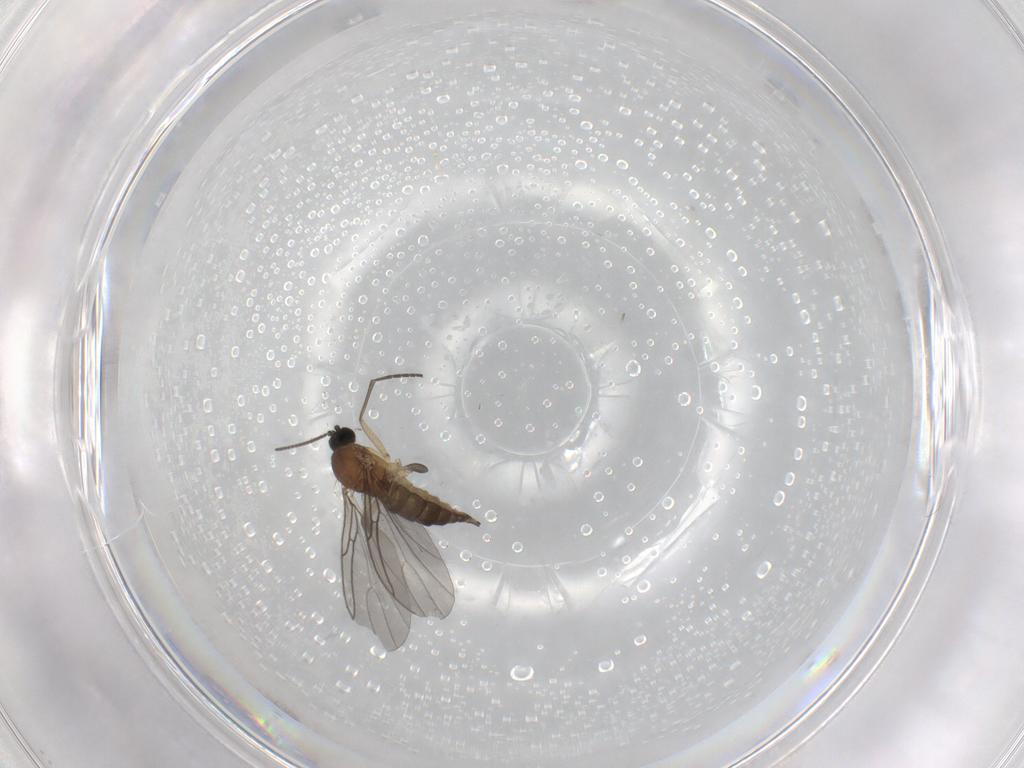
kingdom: Animalia
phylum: Arthropoda
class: Insecta
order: Diptera
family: Sciaridae
